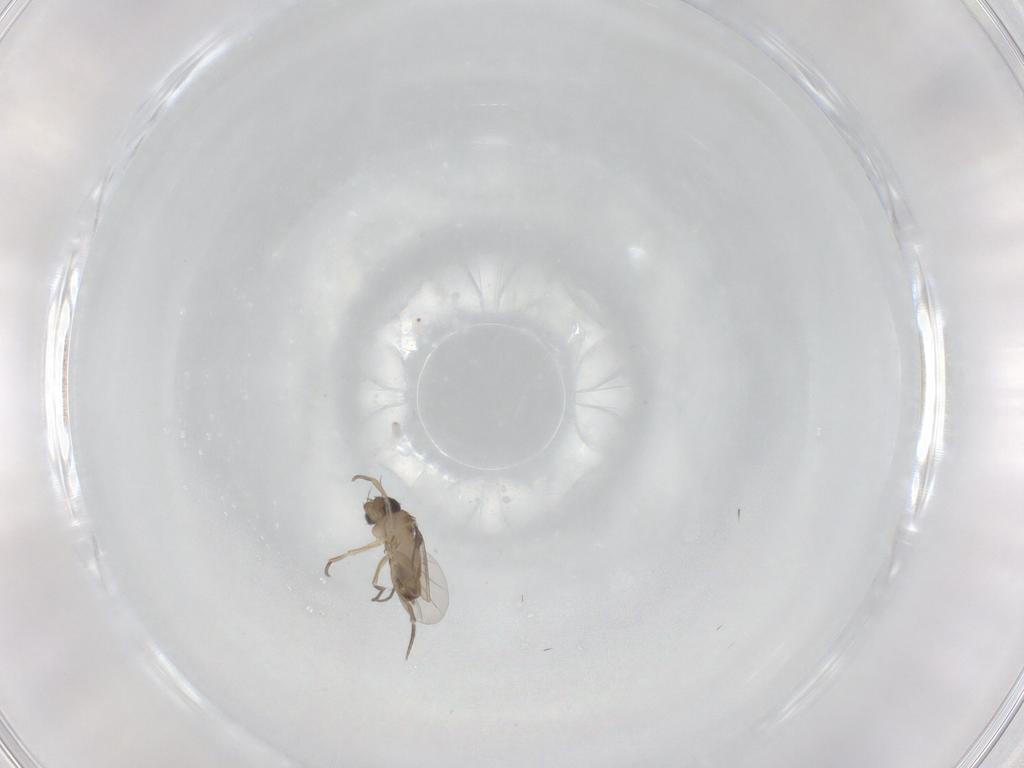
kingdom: Animalia
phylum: Arthropoda
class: Insecta
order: Diptera
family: Phoridae
